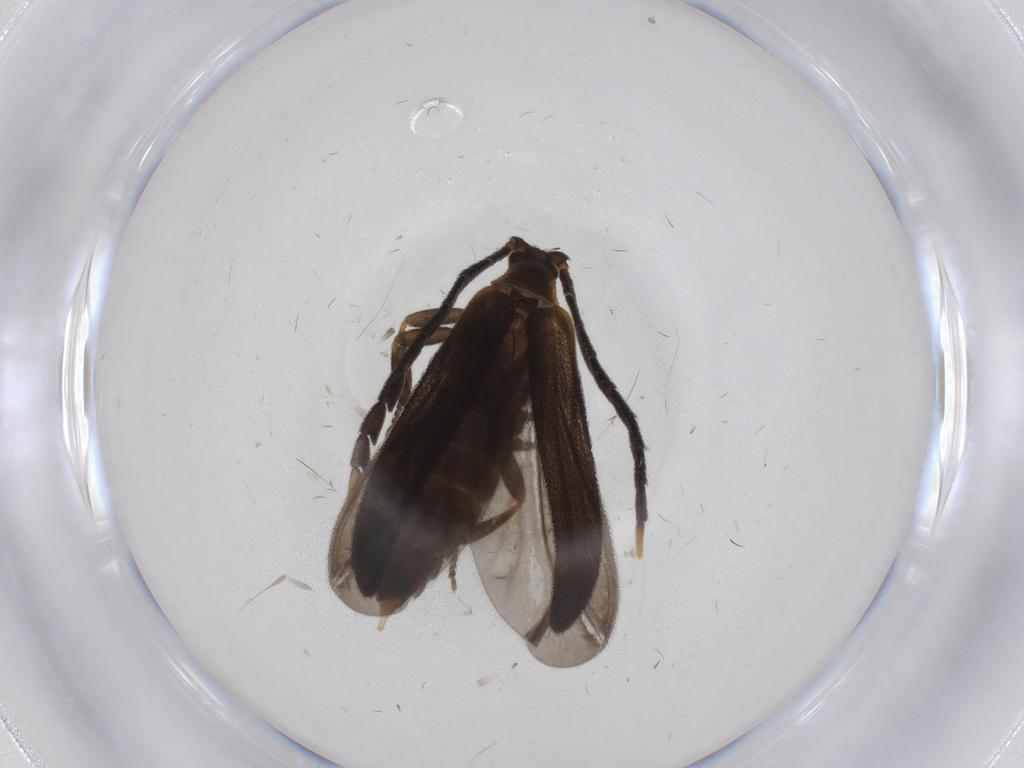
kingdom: Animalia
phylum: Arthropoda
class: Insecta
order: Coleoptera
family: Lycidae
